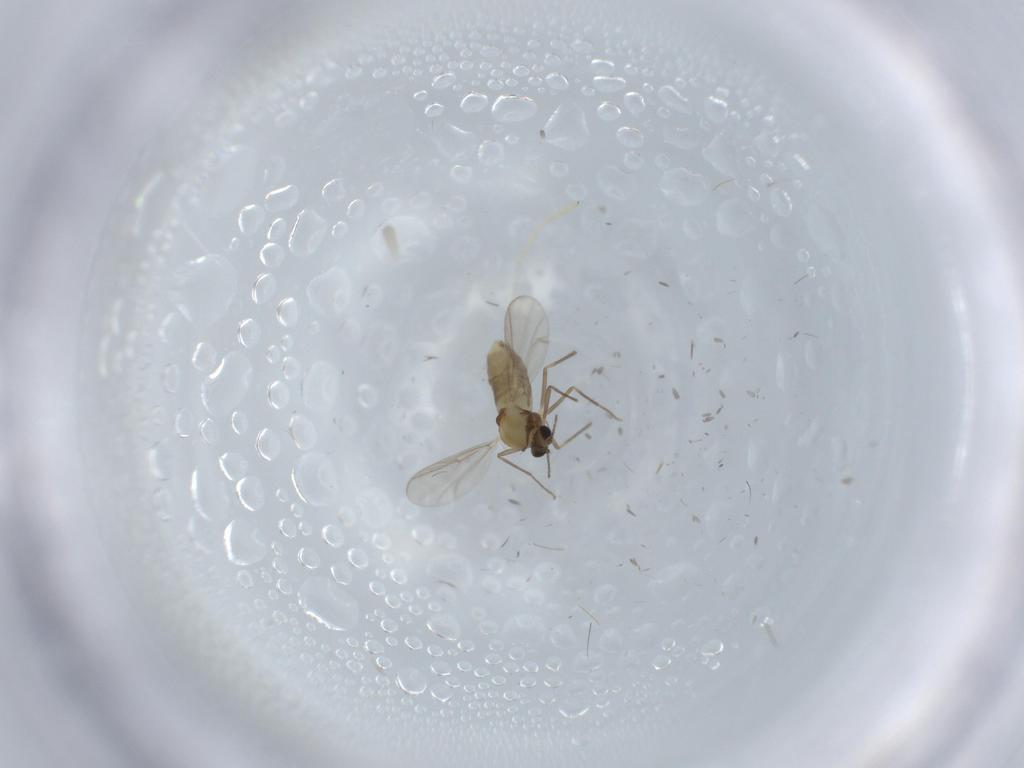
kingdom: Animalia
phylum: Arthropoda
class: Insecta
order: Diptera
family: Chironomidae
